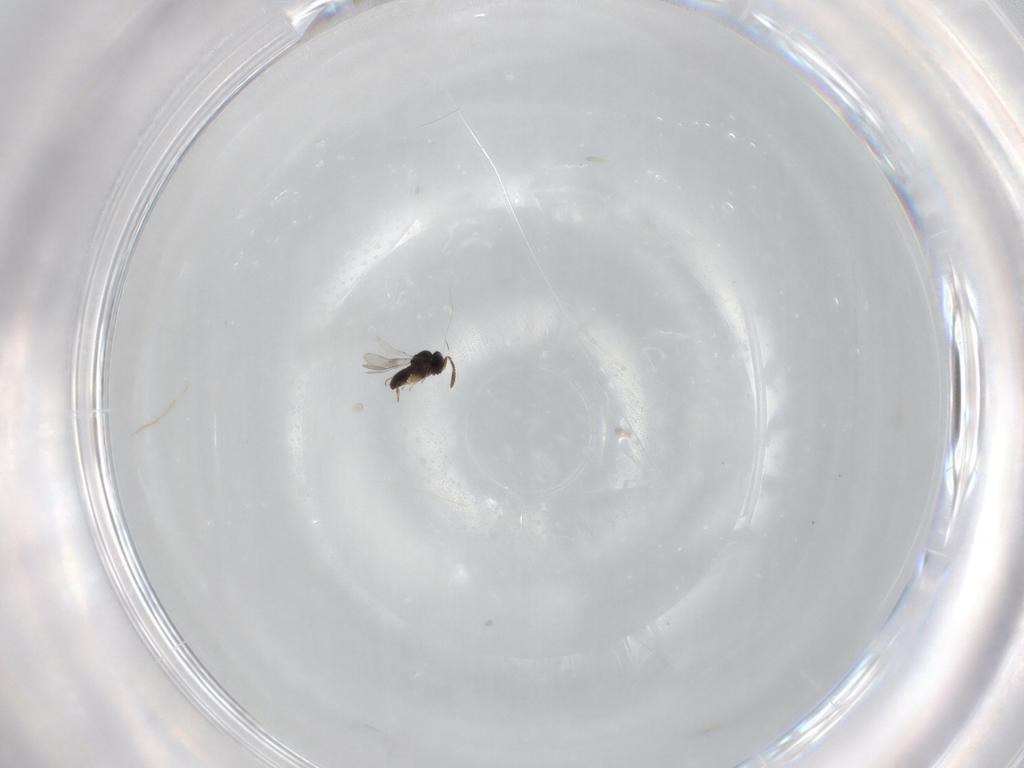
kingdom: Animalia
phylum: Arthropoda
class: Insecta
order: Hymenoptera
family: Scelionidae
